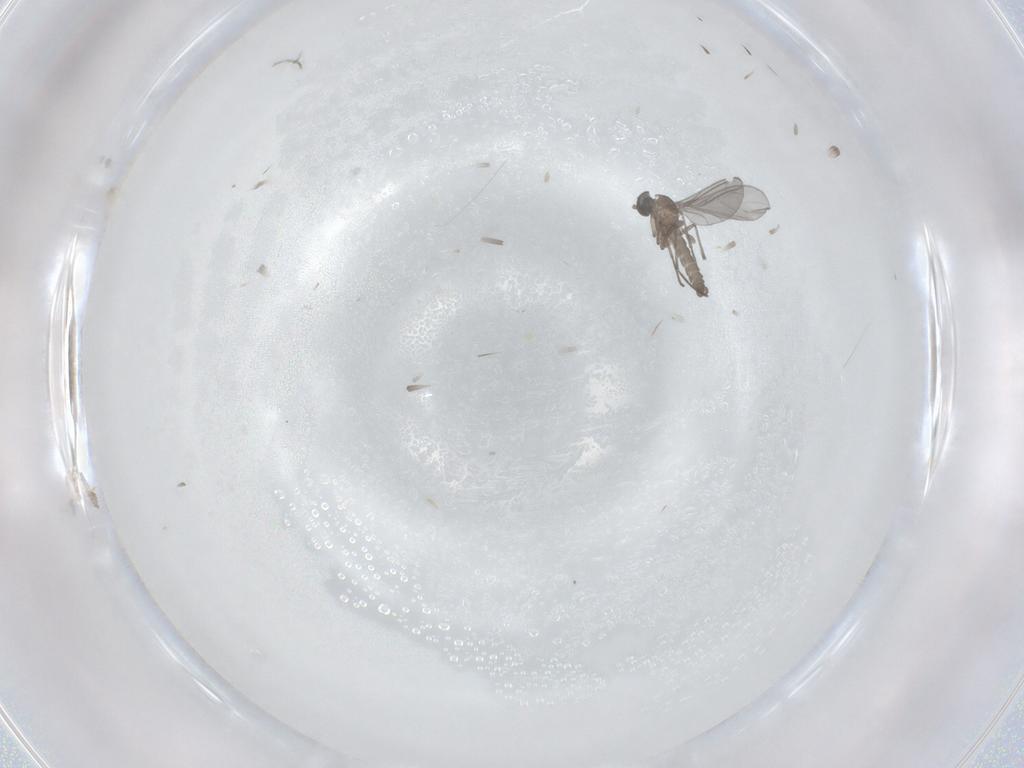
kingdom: Animalia
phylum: Arthropoda
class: Insecta
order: Diptera
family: Sciaridae
